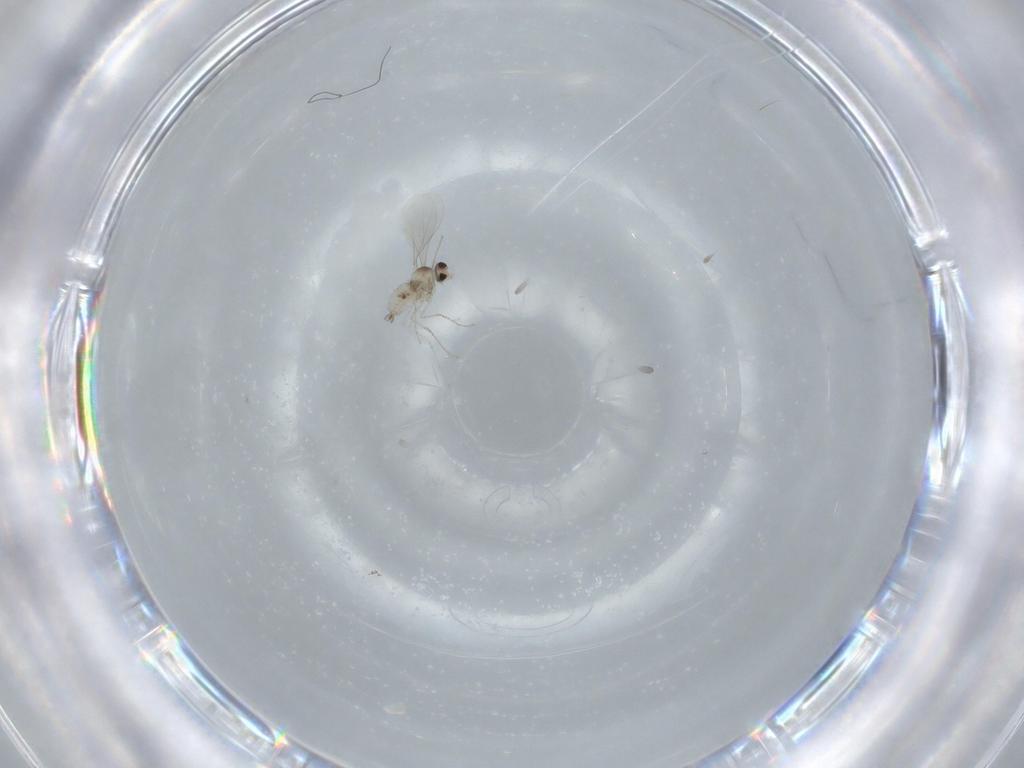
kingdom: Animalia
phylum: Arthropoda
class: Insecta
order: Diptera
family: Cecidomyiidae
